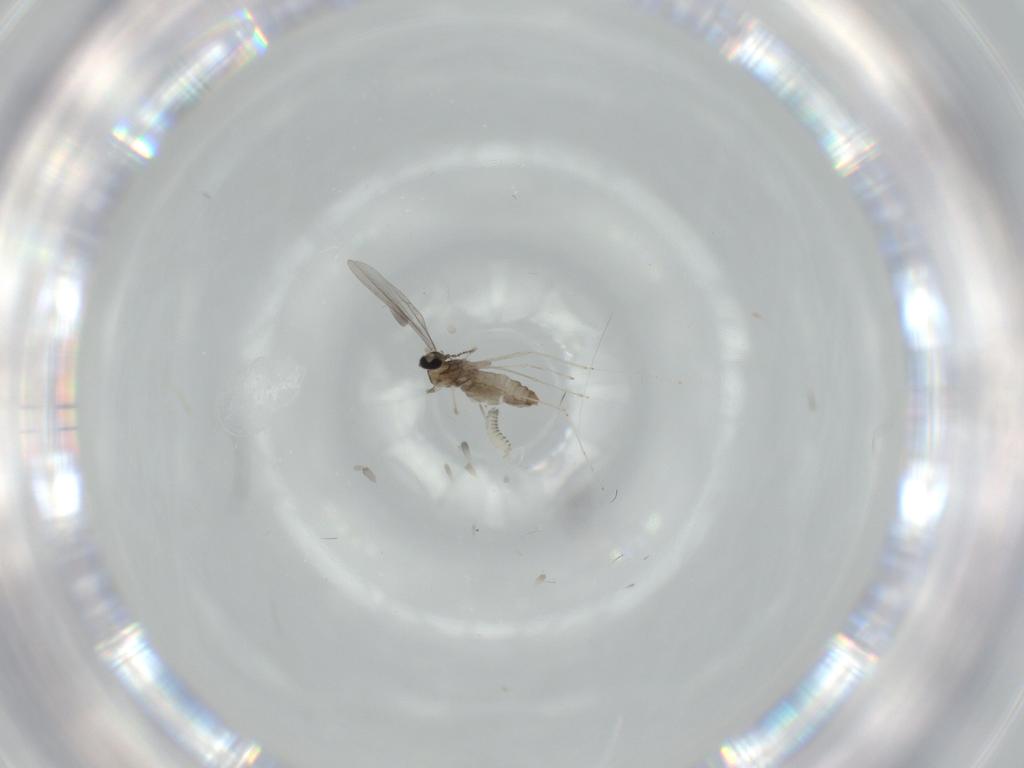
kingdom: Animalia
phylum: Arthropoda
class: Insecta
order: Diptera
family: Cecidomyiidae
